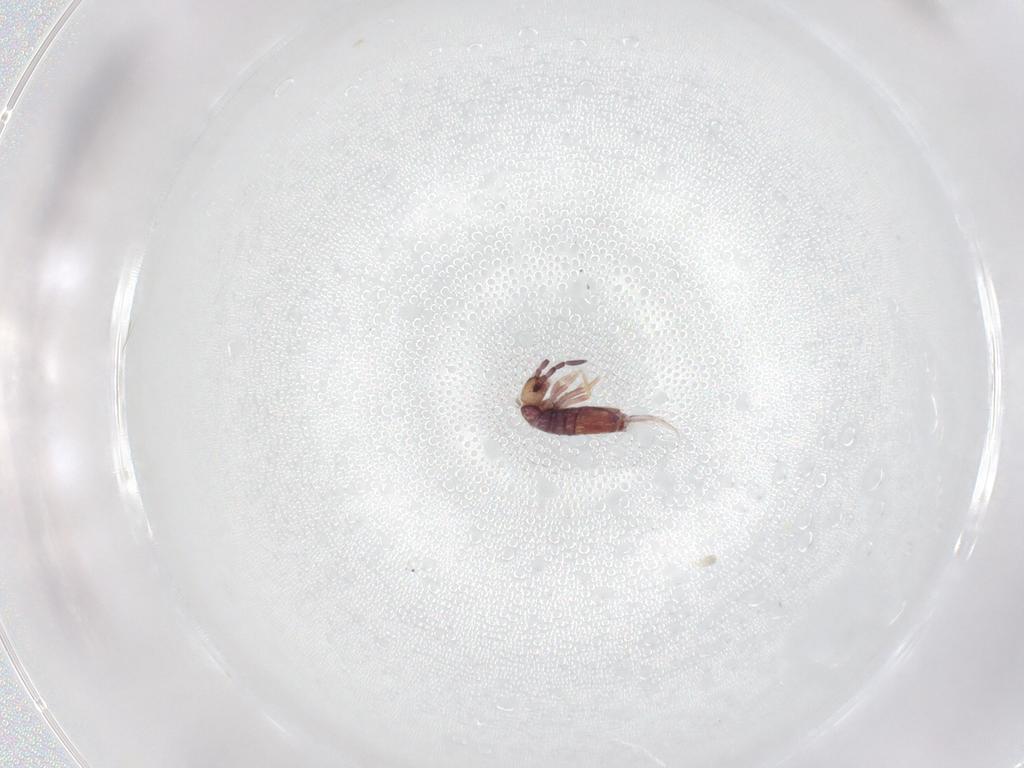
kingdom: Animalia
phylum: Arthropoda
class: Collembola
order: Entomobryomorpha
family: Entomobryidae
